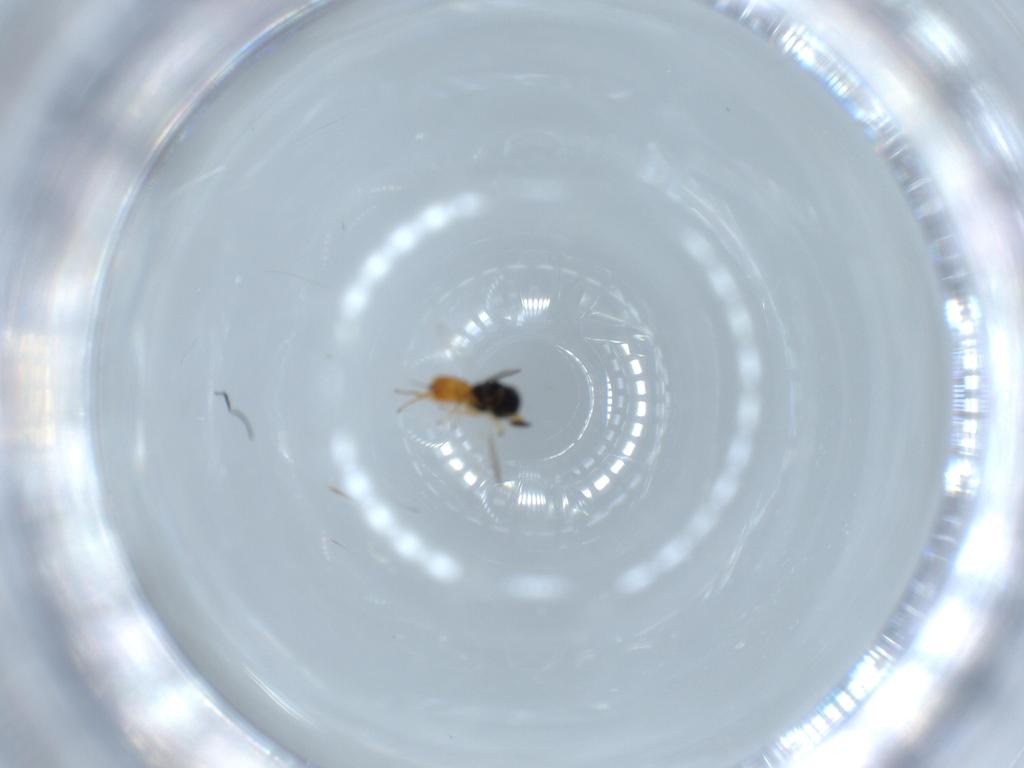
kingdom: Animalia
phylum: Arthropoda
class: Insecta
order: Hymenoptera
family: Scelionidae
